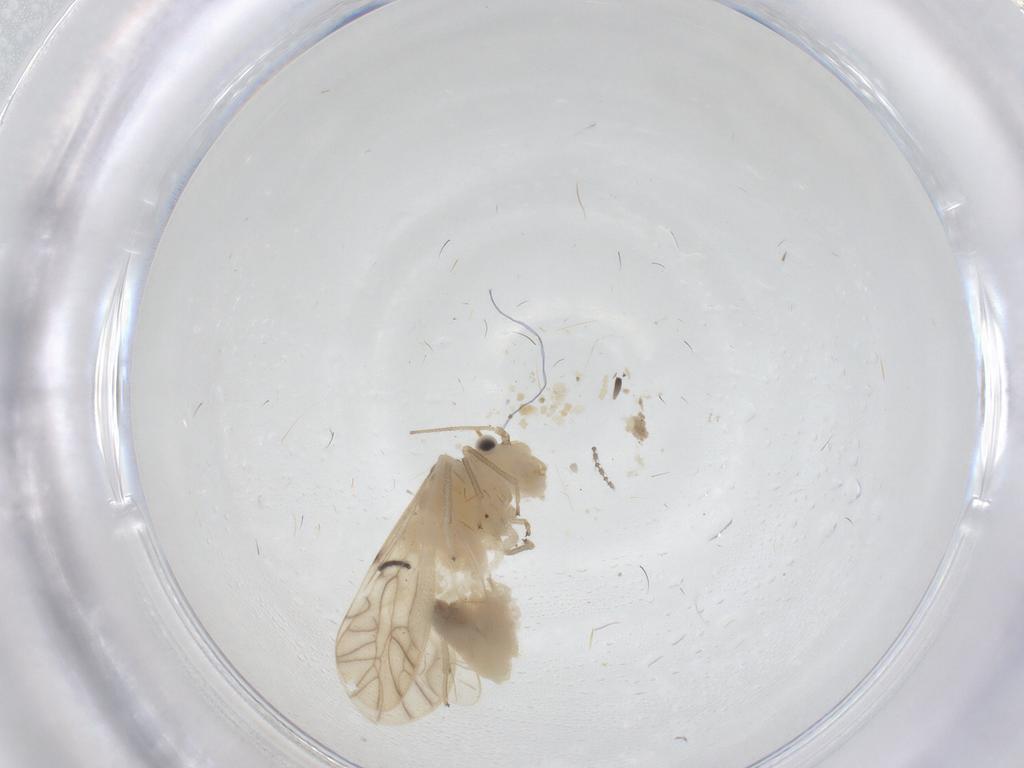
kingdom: Animalia
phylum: Arthropoda
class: Insecta
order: Psocodea
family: Caeciliusidae
